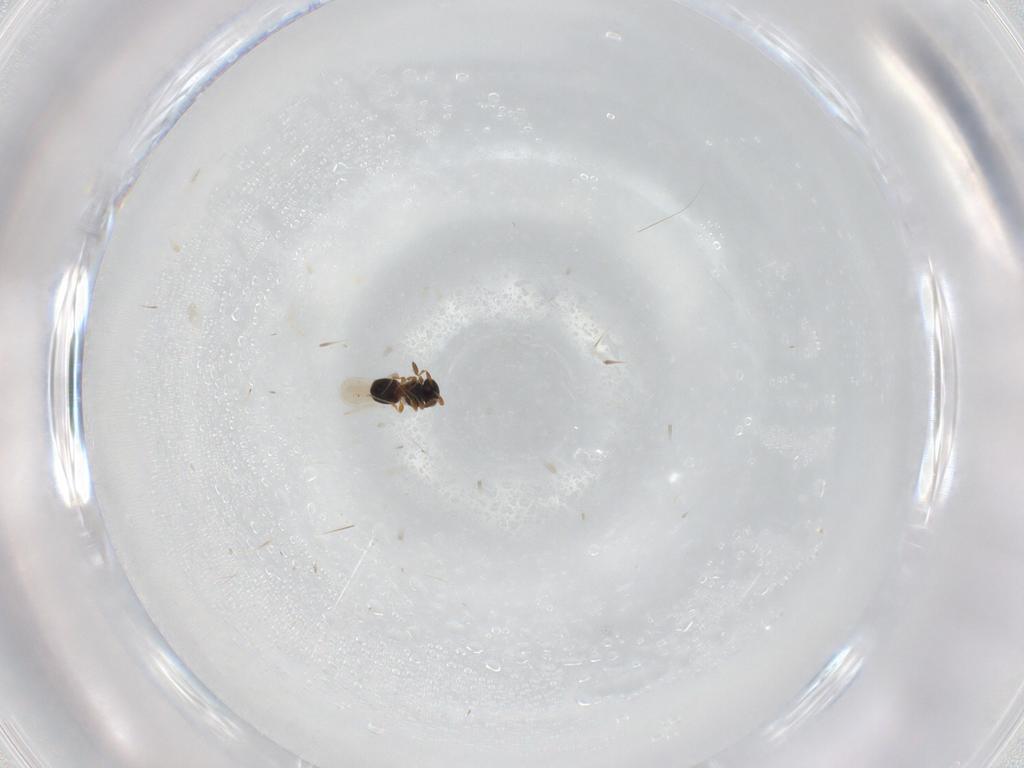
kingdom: Animalia
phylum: Arthropoda
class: Insecta
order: Hymenoptera
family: Platygastridae
